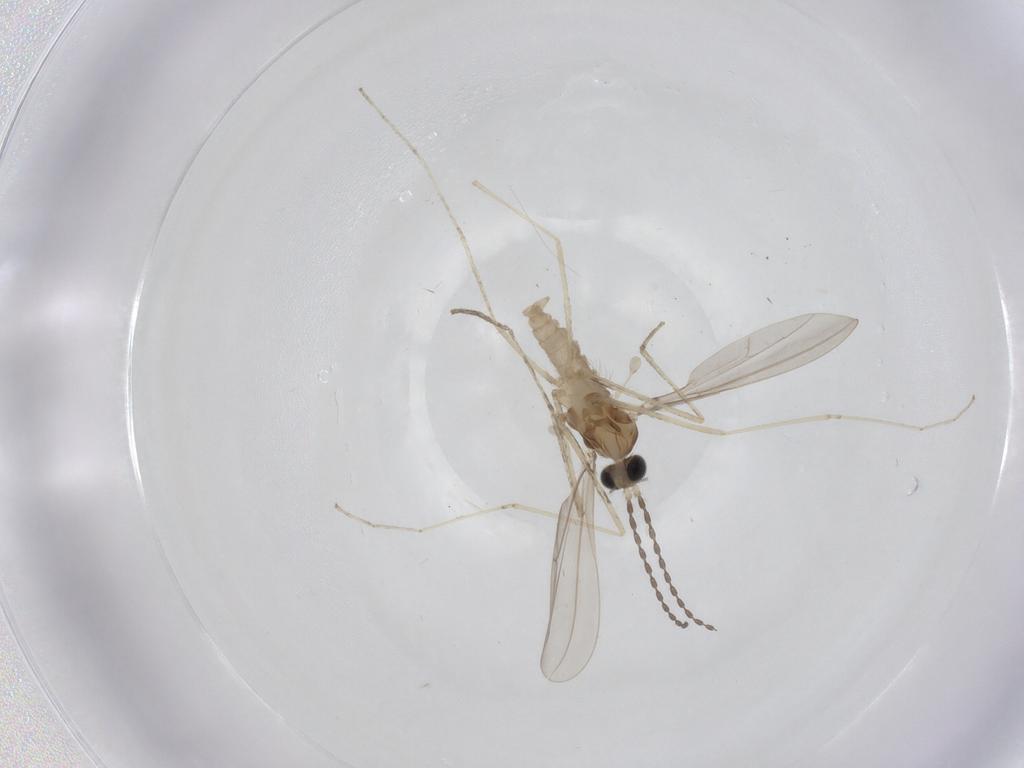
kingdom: Animalia
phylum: Arthropoda
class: Insecta
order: Diptera
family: Cecidomyiidae
